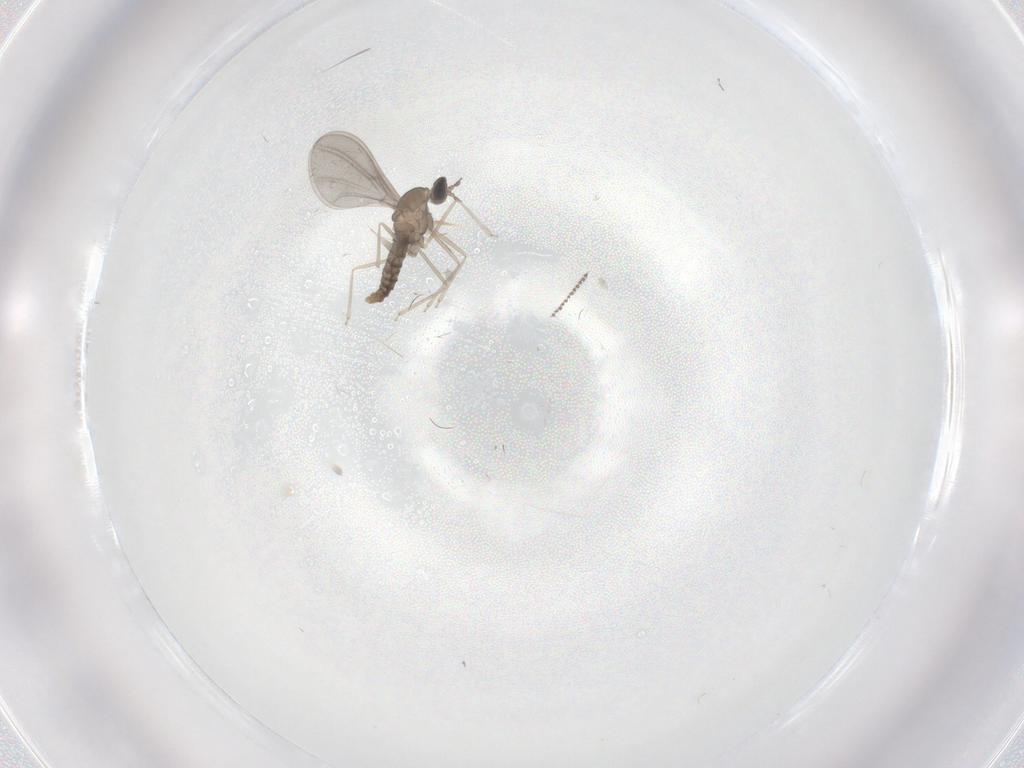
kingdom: Animalia
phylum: Arthropoda
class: Insecta
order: Diptera
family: Cecidomyiidae
